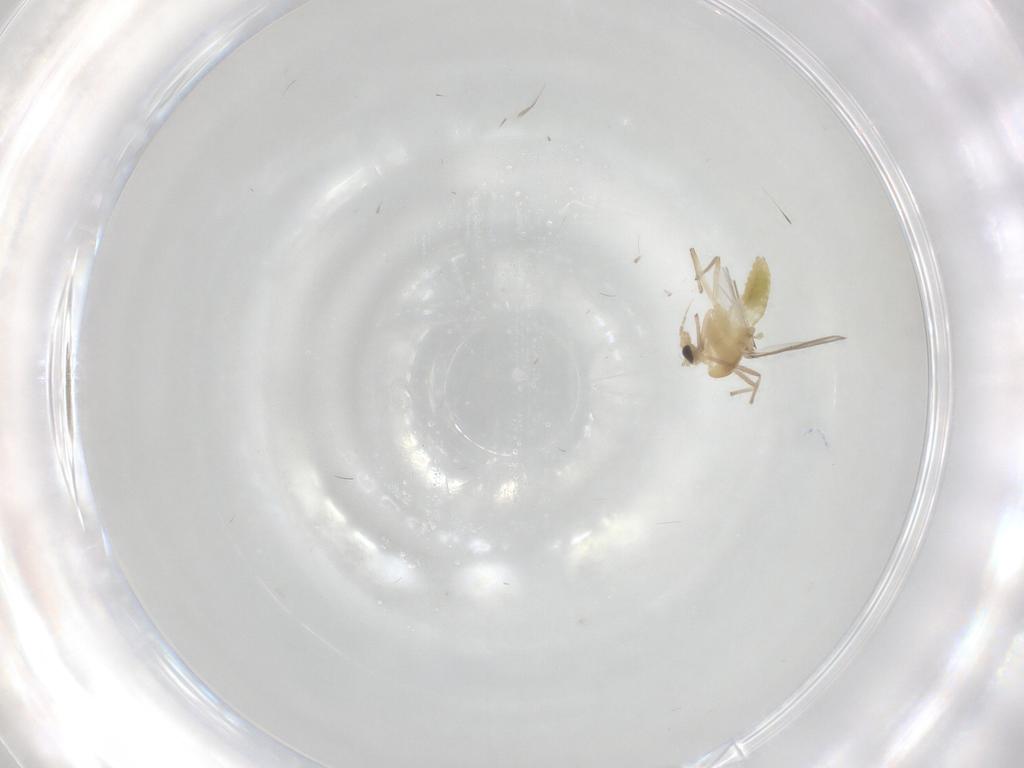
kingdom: Animalia
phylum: Arthropoda
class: Insecta
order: Diptera
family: Chironomidae
